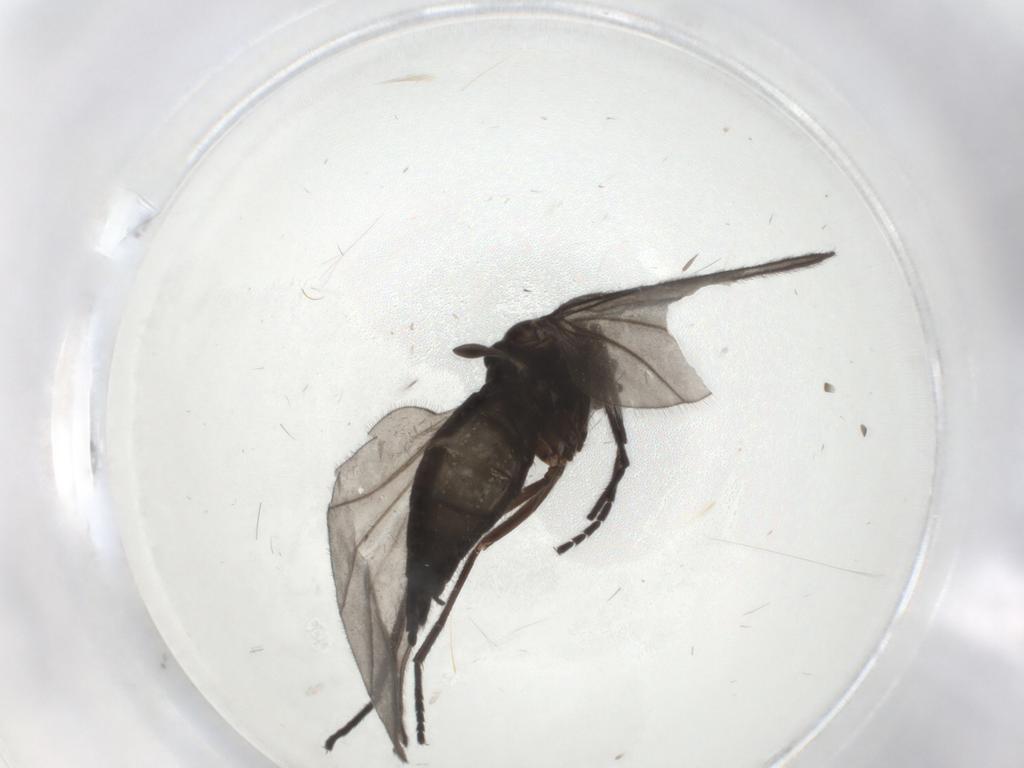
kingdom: Animalia
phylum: Arthropoda
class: Insecta
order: Diptera
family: Sciaridae
